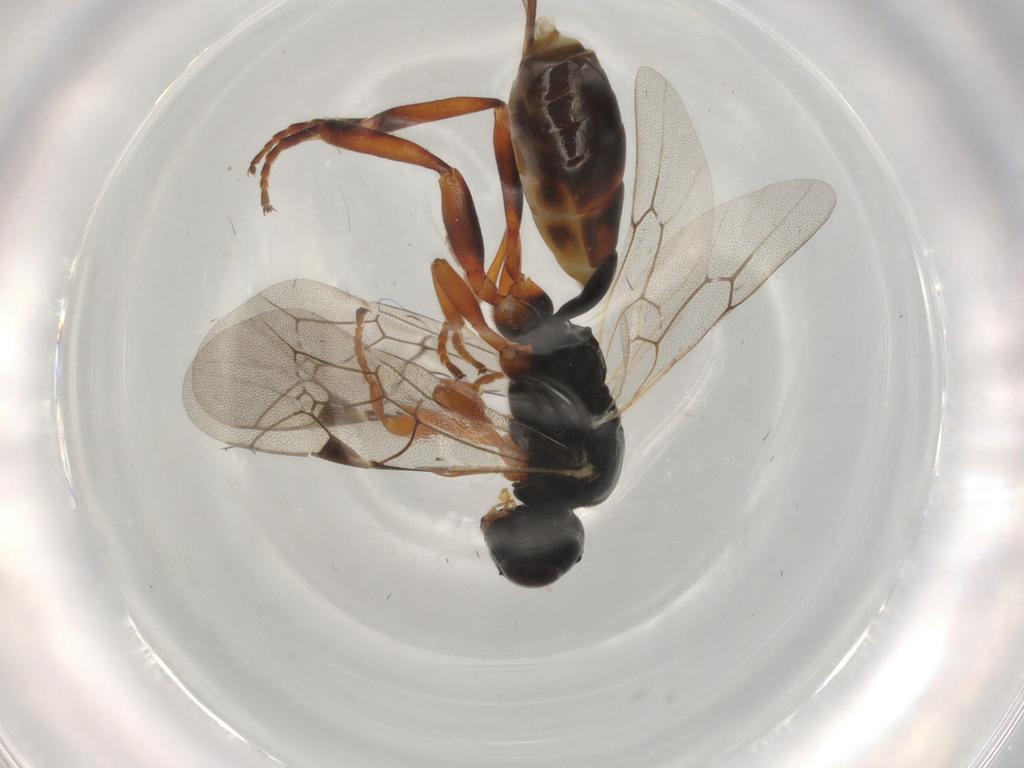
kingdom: Animalia
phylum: Arthropoda
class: Insecta
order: Hymenoptera
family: Ichneumonidae
